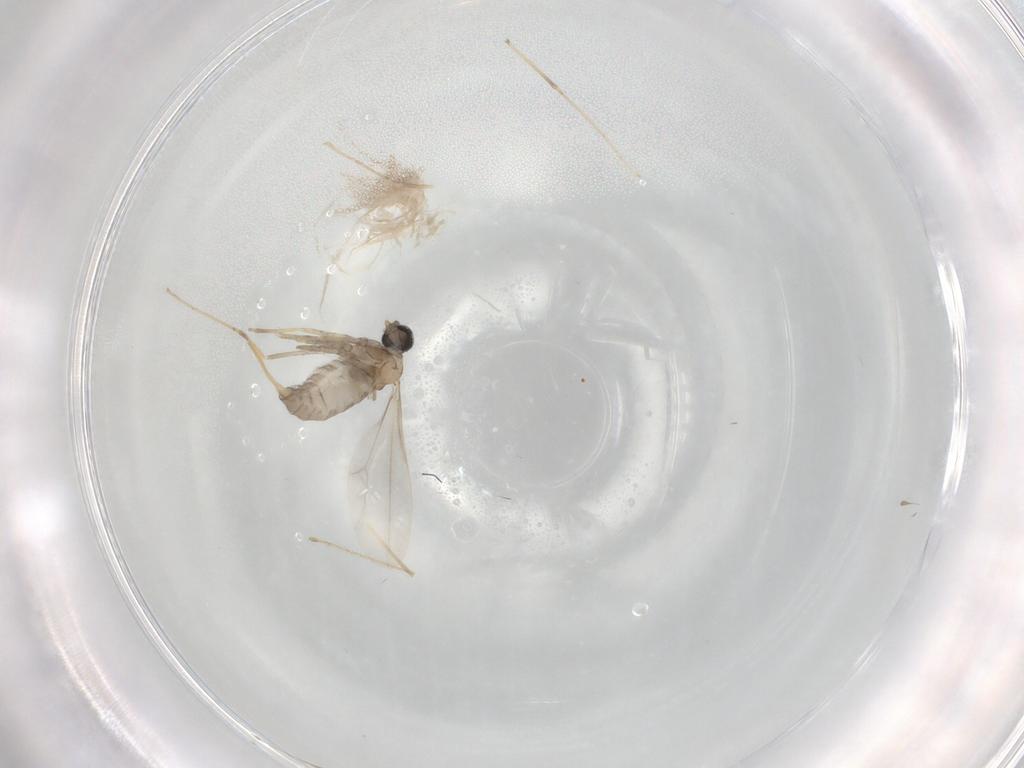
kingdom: Animalia
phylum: Arthropoda
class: Insecta
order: Diptera
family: Cecidomyiidae
